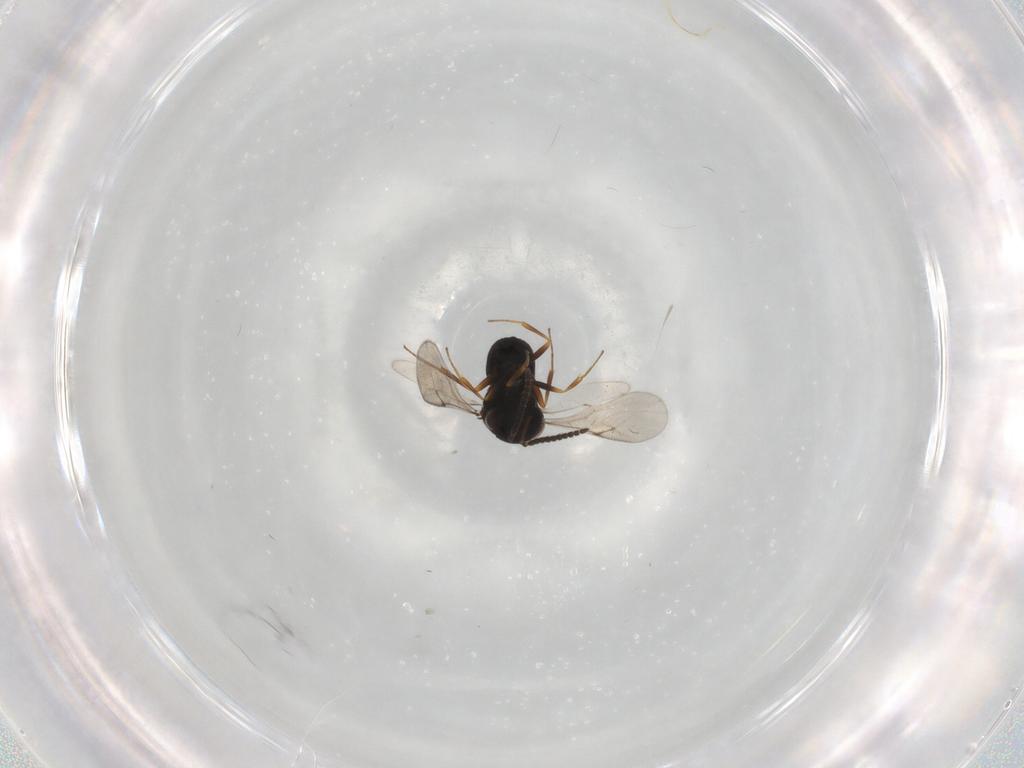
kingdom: Animalia
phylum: Arthropoda
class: Insecta
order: Hymenoptera
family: Scelionidae
